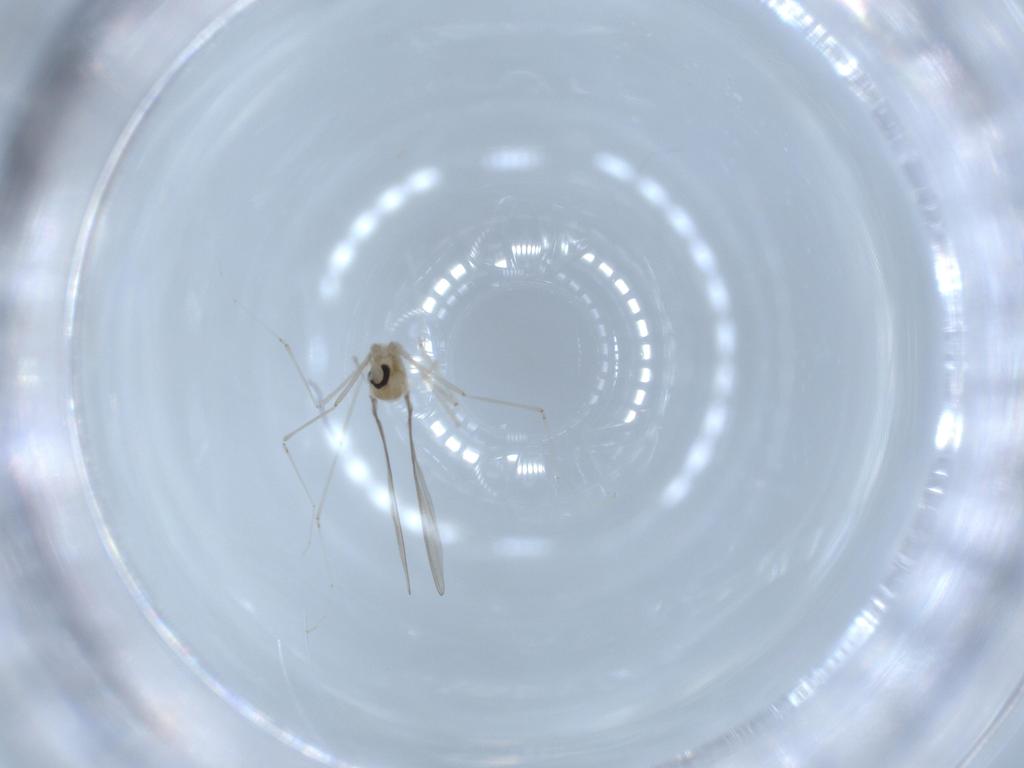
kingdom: Animalia
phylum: Arthropoda
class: Insecta
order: Diptera
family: Cecidomyiidae
